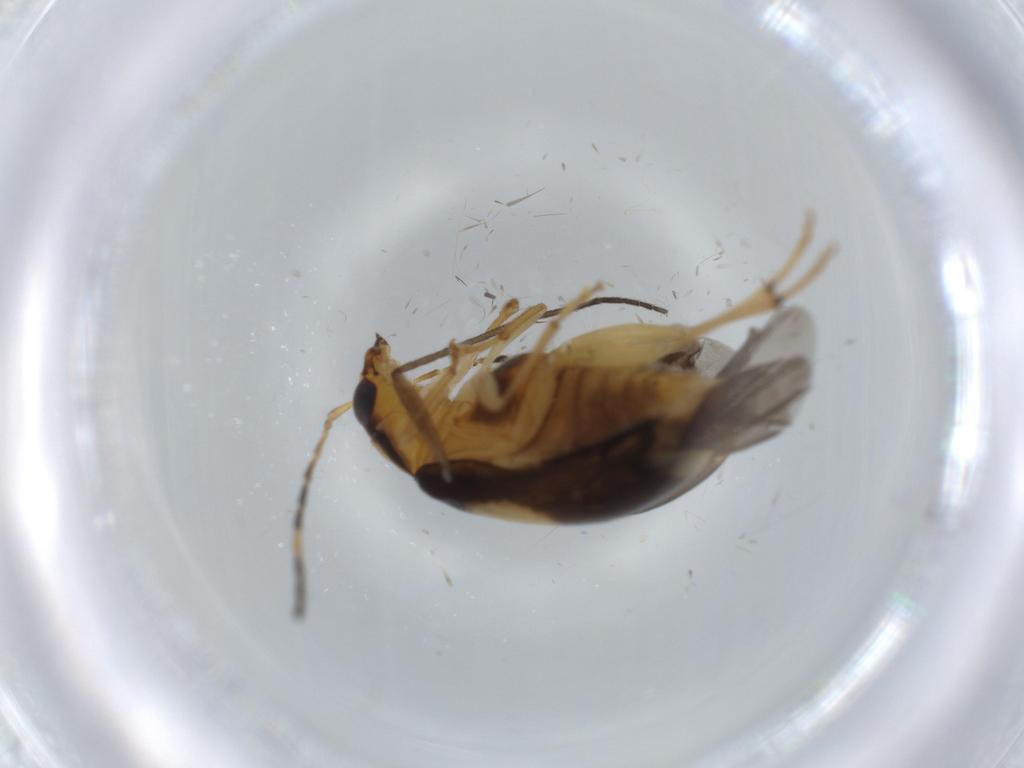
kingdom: Animalia
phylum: Arthropoda
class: Insecta
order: Coleoptera
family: Chrysomelidae
